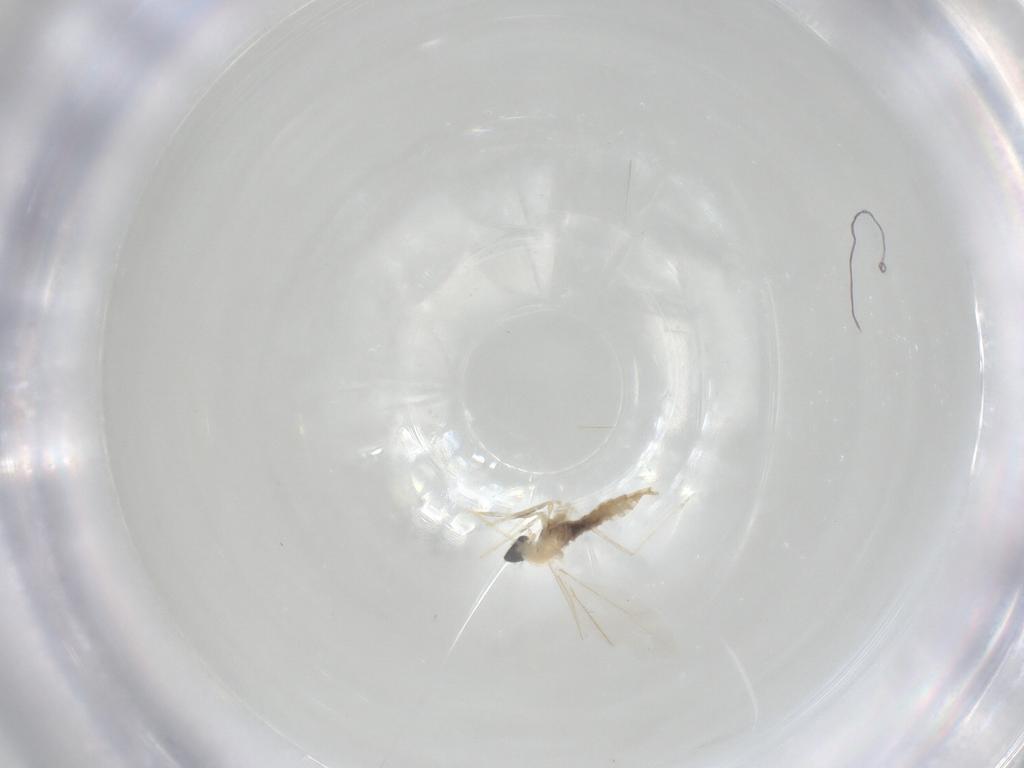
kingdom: Animalia
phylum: Arthropoda
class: Insecta
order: Diptera
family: Cecidomyiidae
